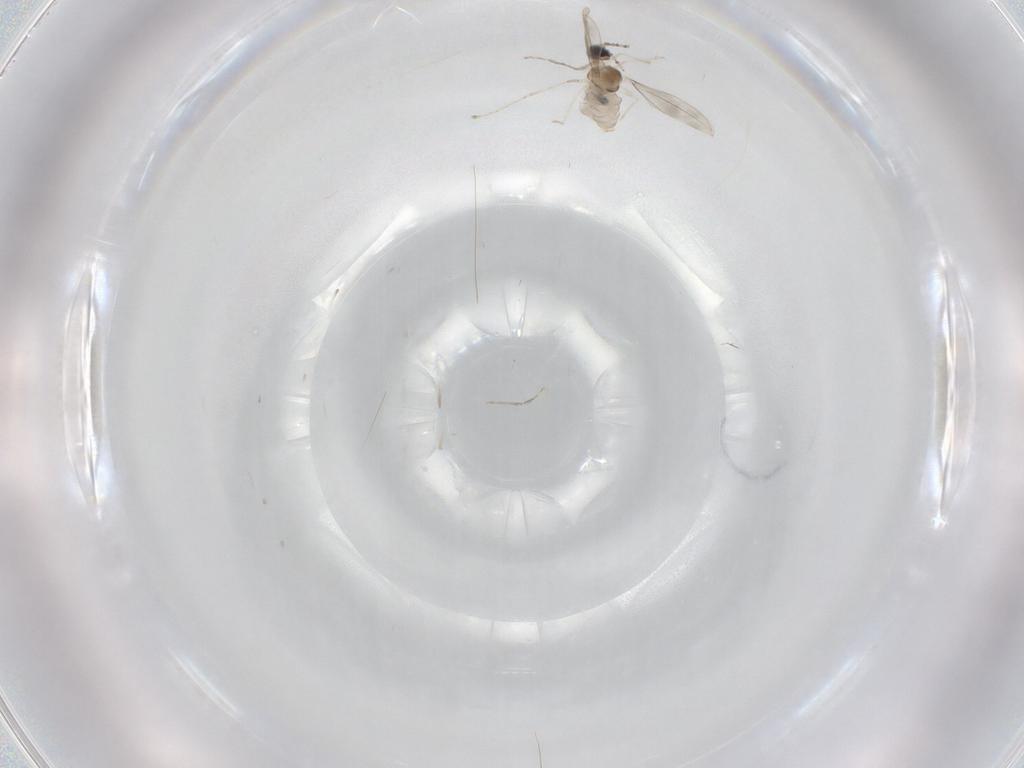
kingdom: Animalia
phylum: Arthropoda
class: Insecta
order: Diptera
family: Cecidomyiidae
